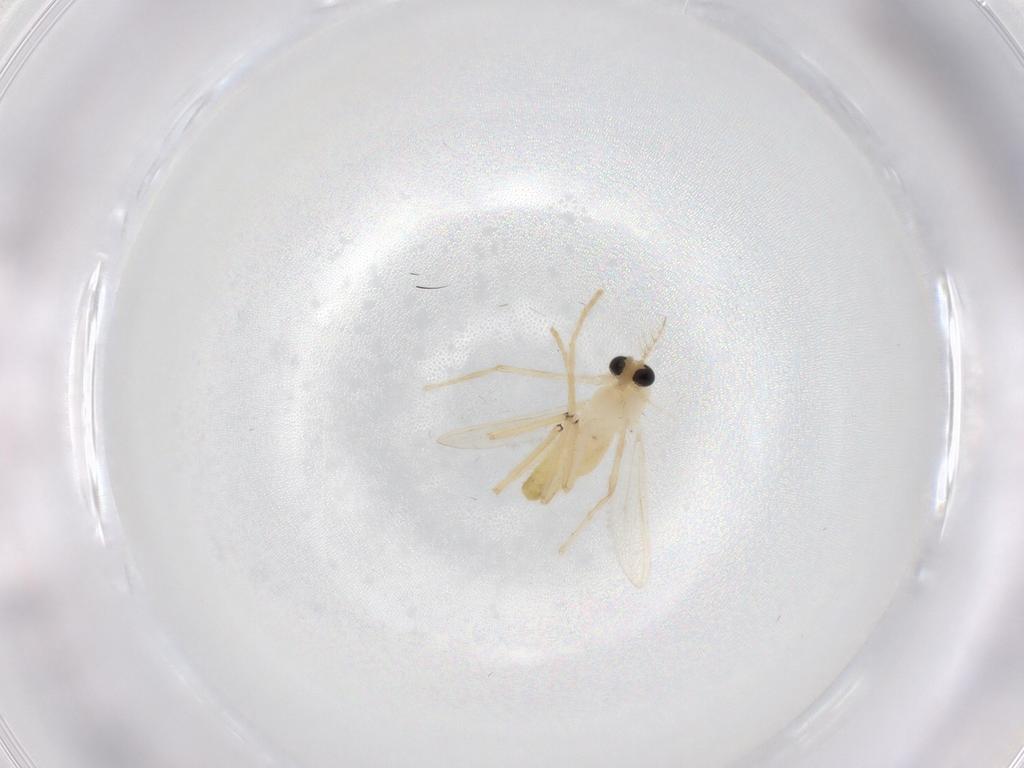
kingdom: Animalia
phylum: Arthropoda
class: Insecta
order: Diptera
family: Chironomidae
